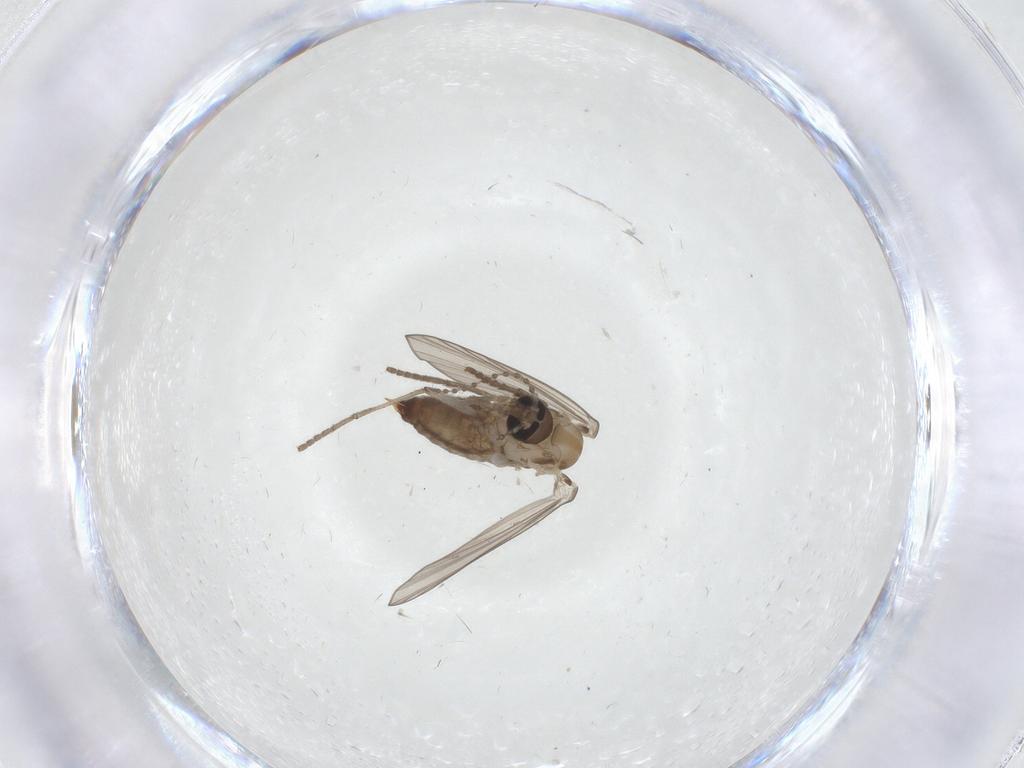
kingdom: Animalia
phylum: Arthropoda
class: Insecta
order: Diptera
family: Psychodidae
